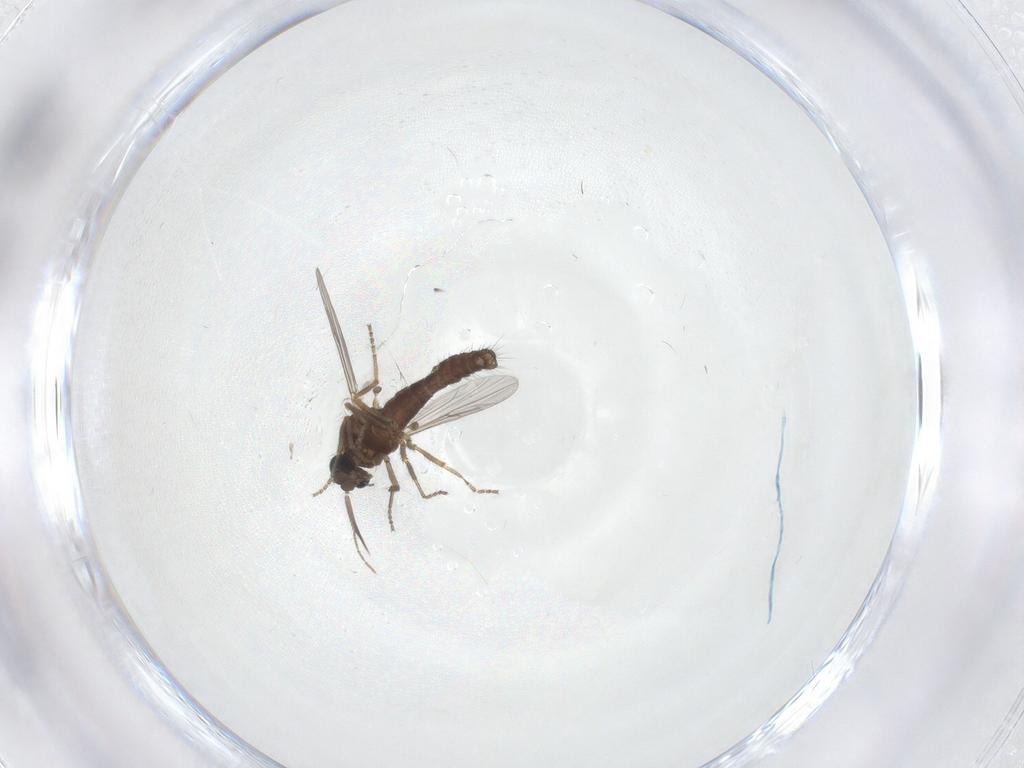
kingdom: Animalia
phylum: Arthropoda
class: Insecta
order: Diptera
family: Ceratopogonidae
